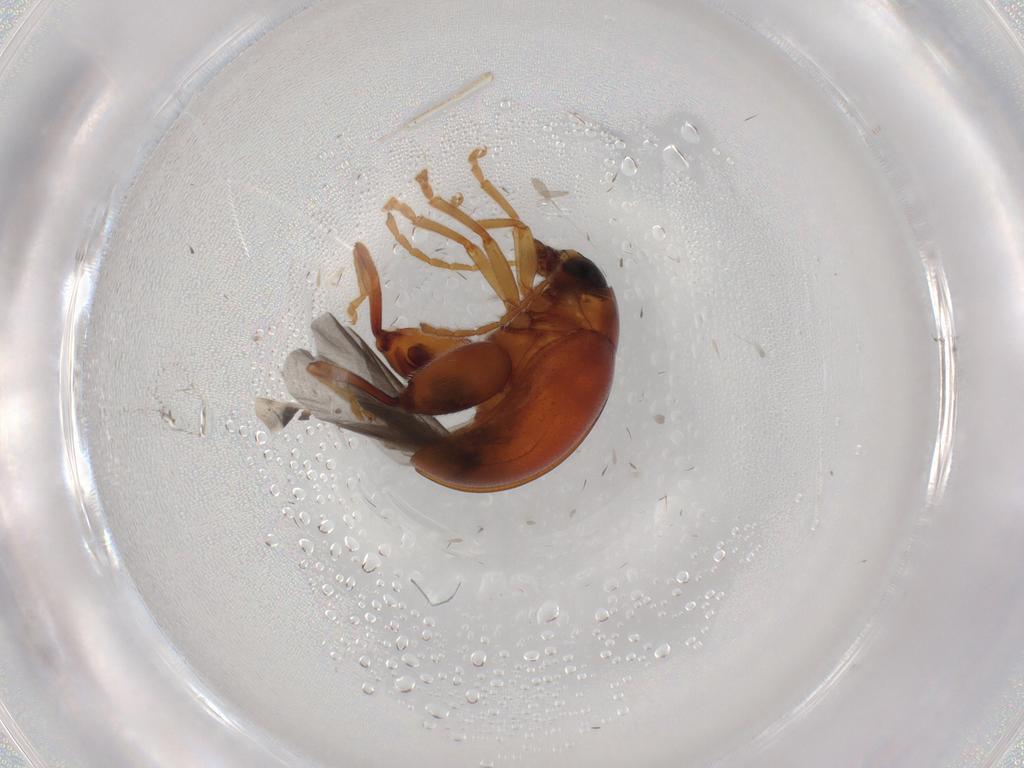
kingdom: Animalia
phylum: Arthropoda
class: Insecta
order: Coleoptera
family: Chrysomelidae
